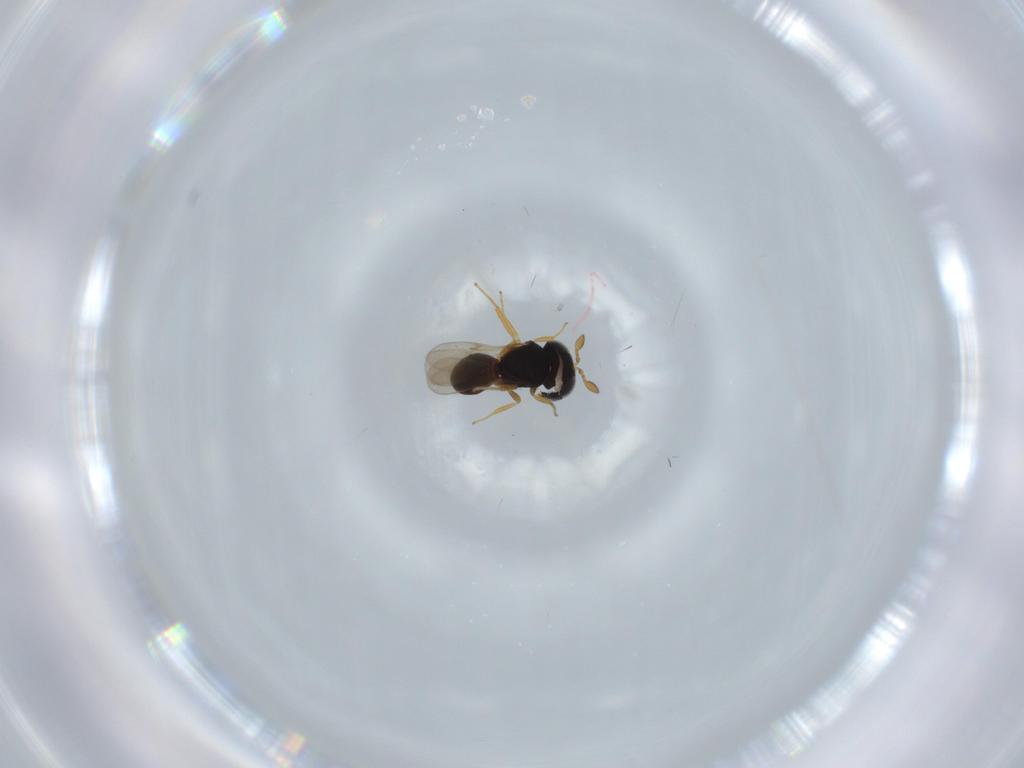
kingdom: Animalia
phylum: Arthropoda
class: Insecta
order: Hymenoptera
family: Scelionidae
